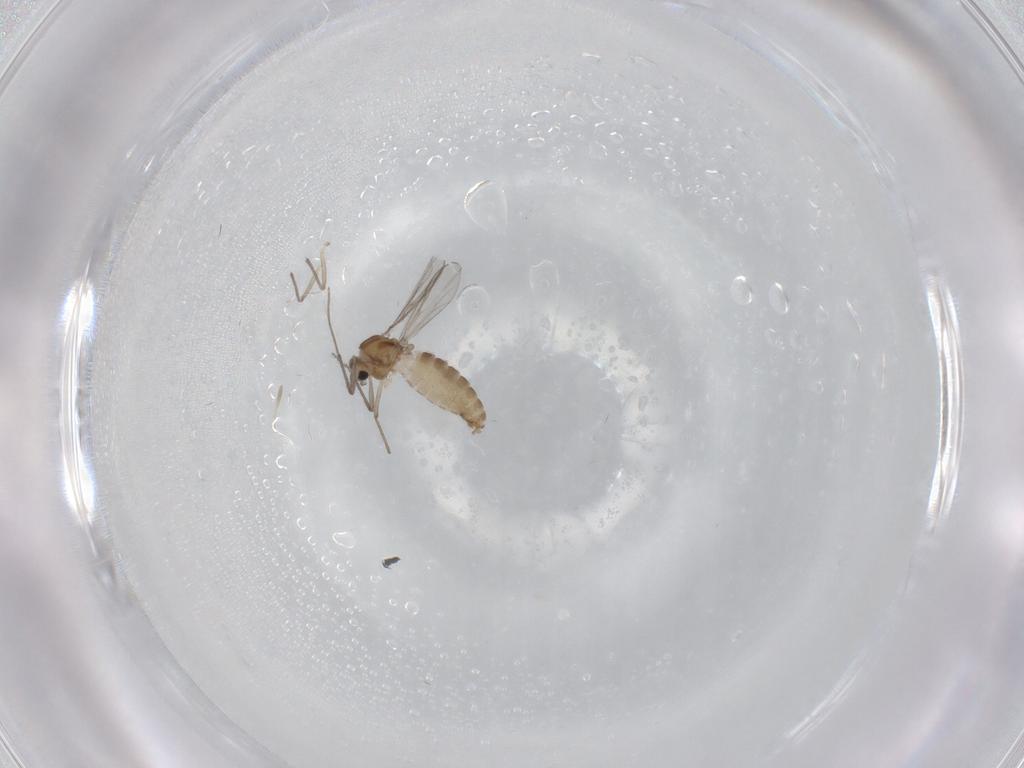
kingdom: Animalia
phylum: Arthropoda
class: Insecta
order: Diptera
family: Chironomidae
